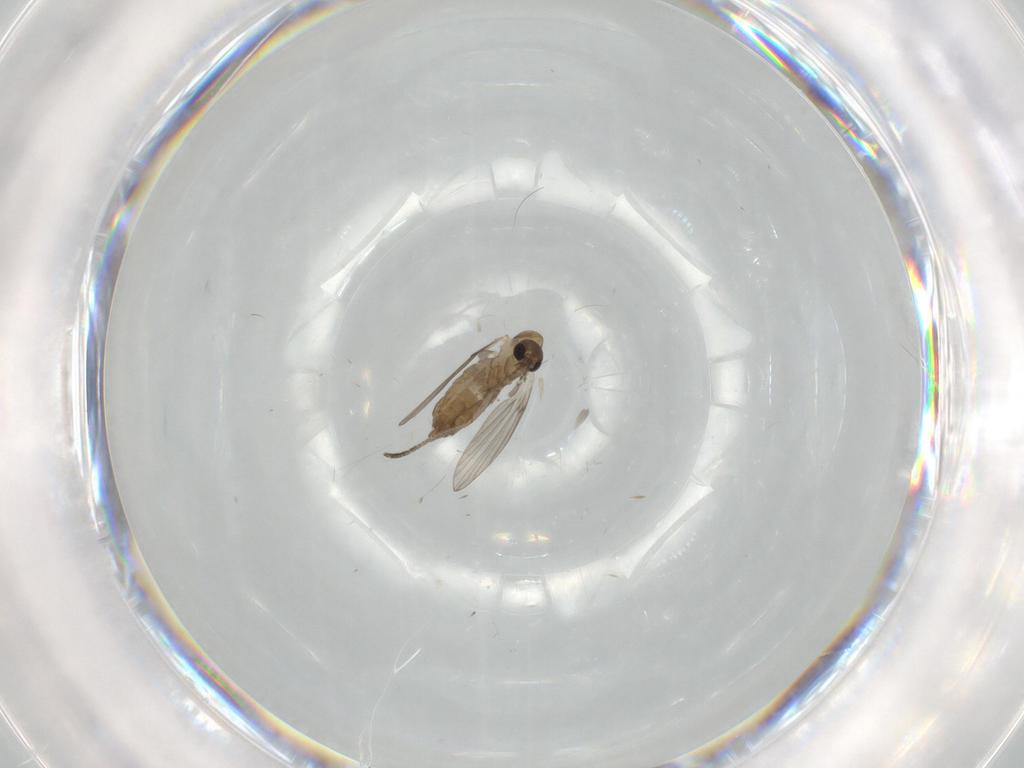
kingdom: Animalia
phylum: Arthropoda
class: Insecta
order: Diptera
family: Psychodidae
